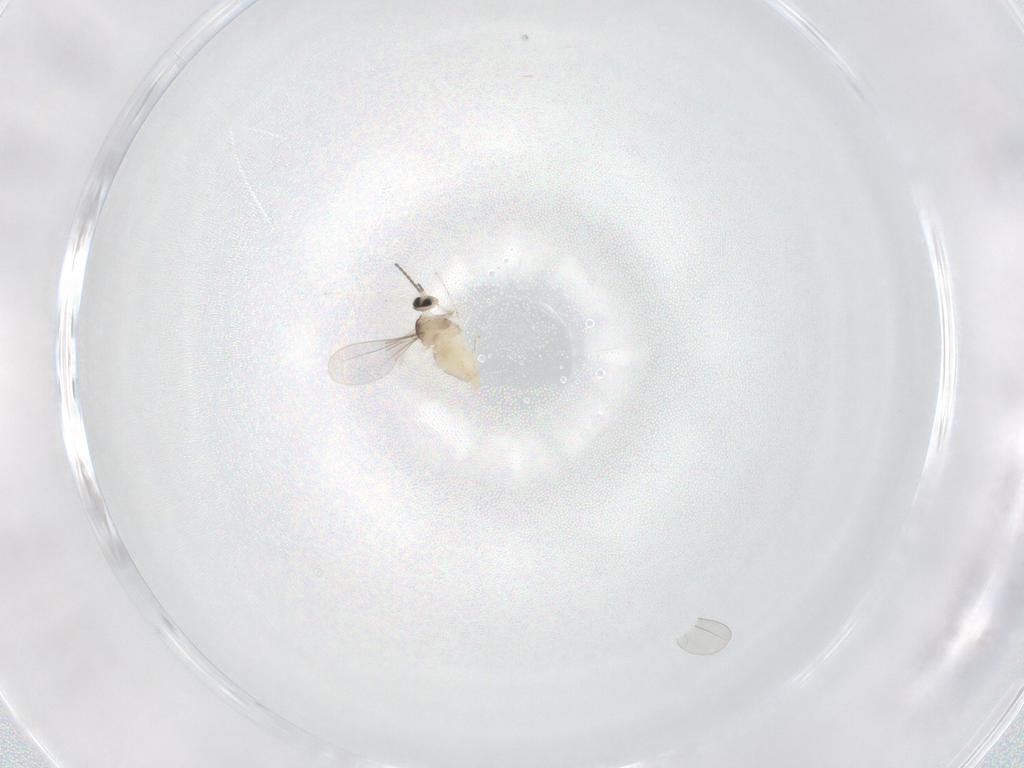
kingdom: Animalia
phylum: Arthropoda
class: Insecta
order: Diptera
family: Cecidomyiidae
